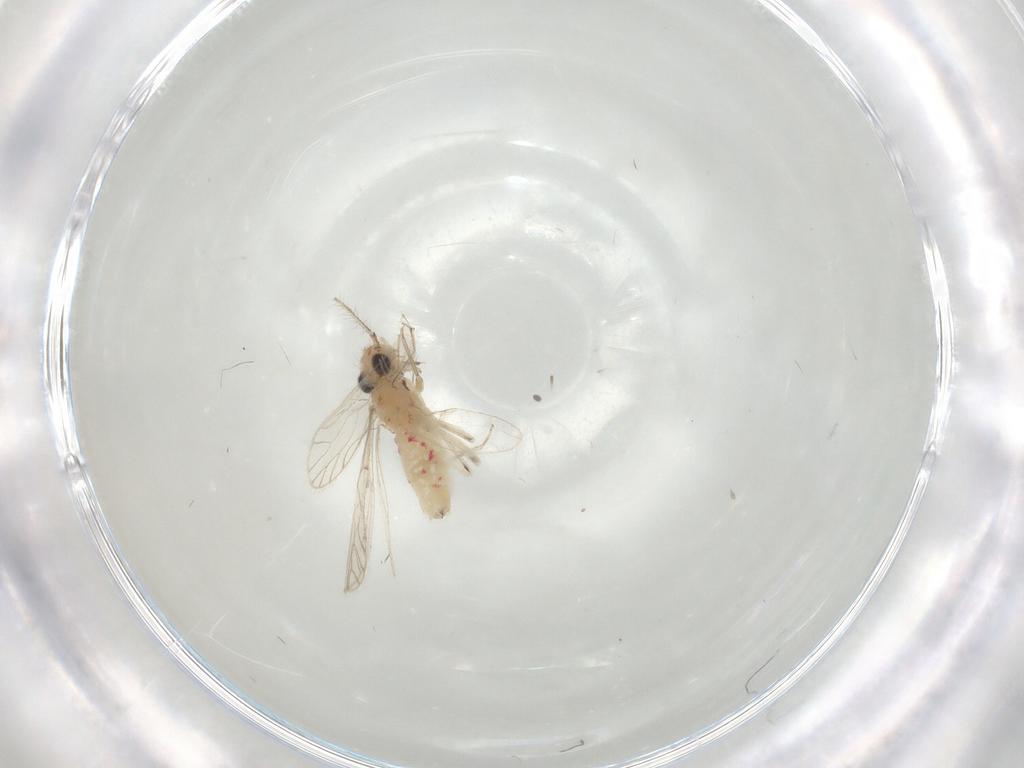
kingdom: Animalia
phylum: Arthropoda
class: Insecta
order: Psocodea
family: Caeciliusidae
